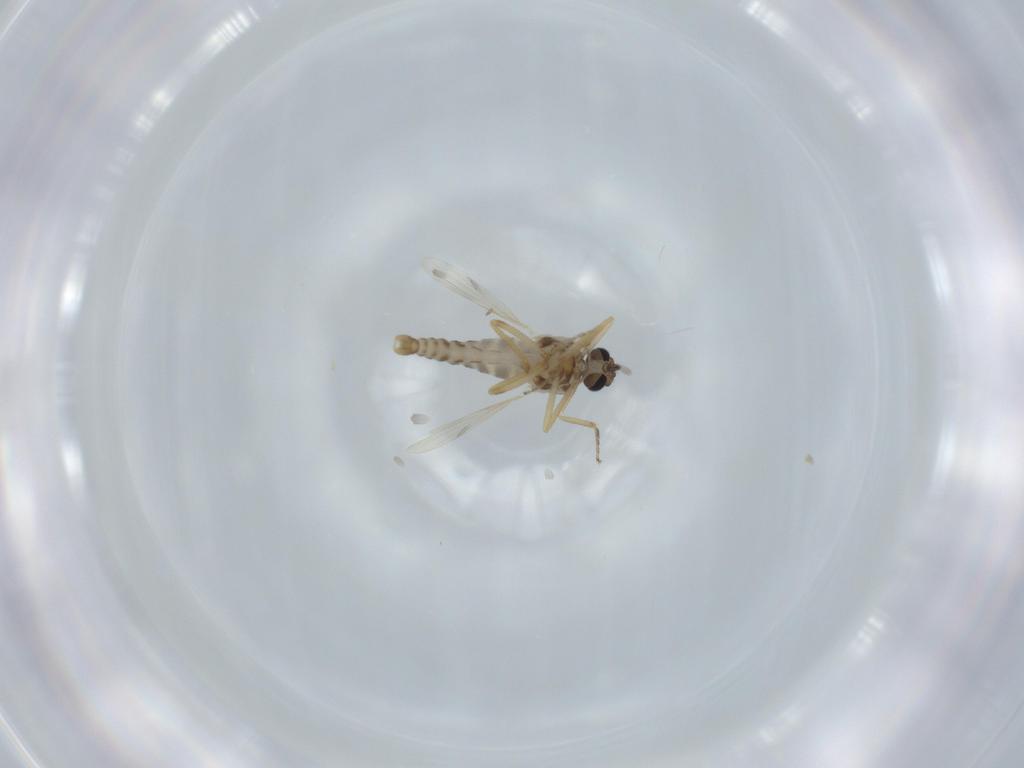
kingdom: Animalia
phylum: Arthropoda
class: Insecta
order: Diptera
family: Ceratopogonidae
